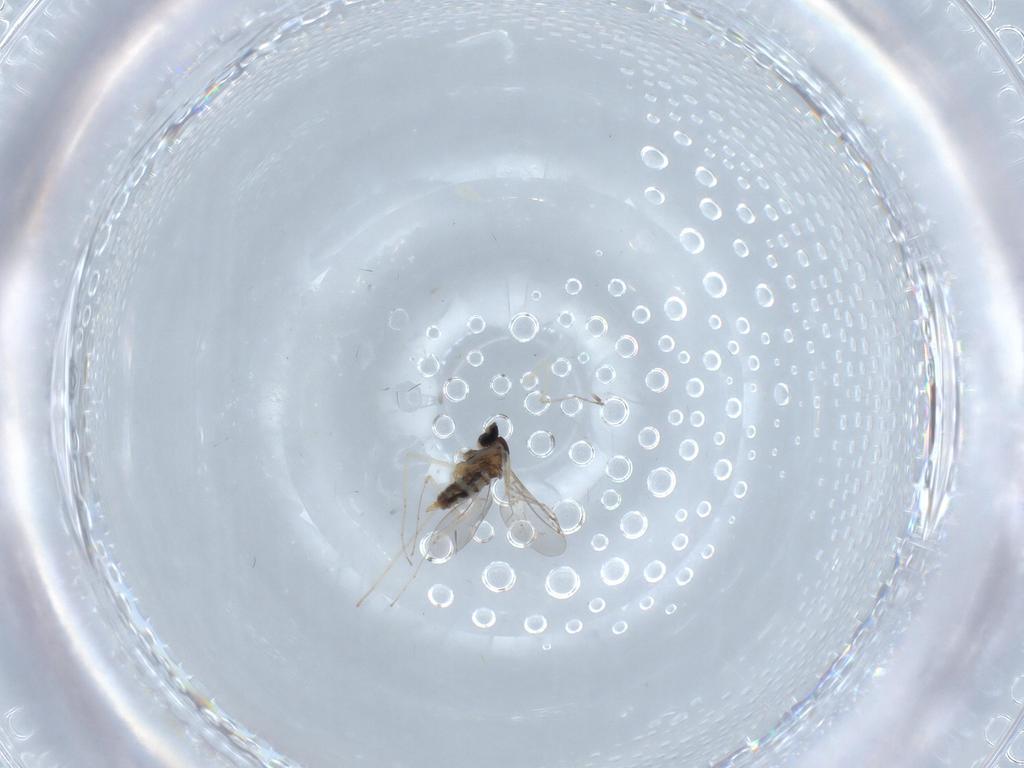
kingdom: Animalia
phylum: Arthropoda
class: Insecta
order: Diptera
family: Cecidomyiidae
